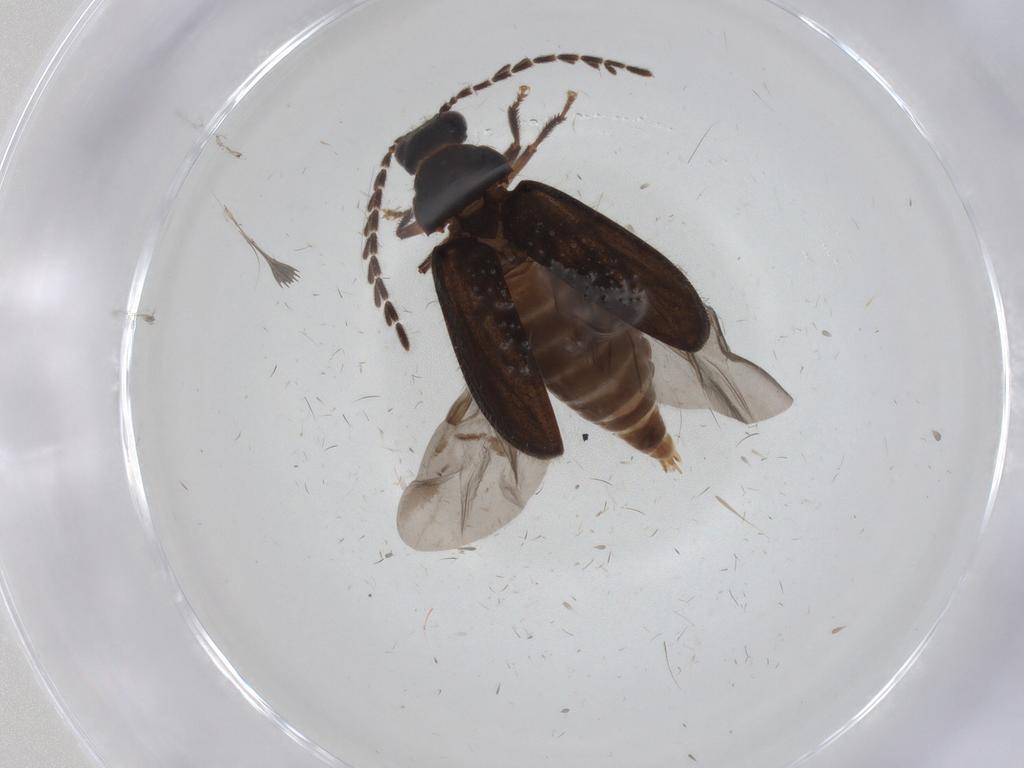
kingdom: Animalia
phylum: Arthropoda
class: Insecta
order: Coleoptera
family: Ptilodactylidae
